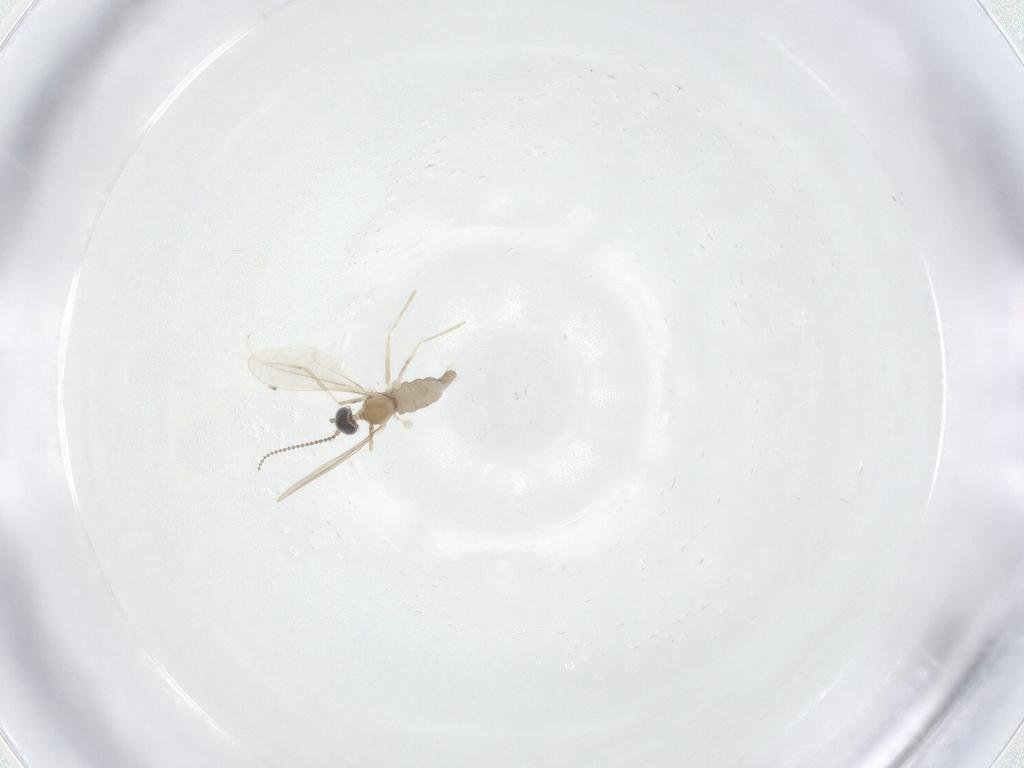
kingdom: Animalia
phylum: Arthropoda
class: Insecta
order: Diptera
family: Cecidomyiidae
